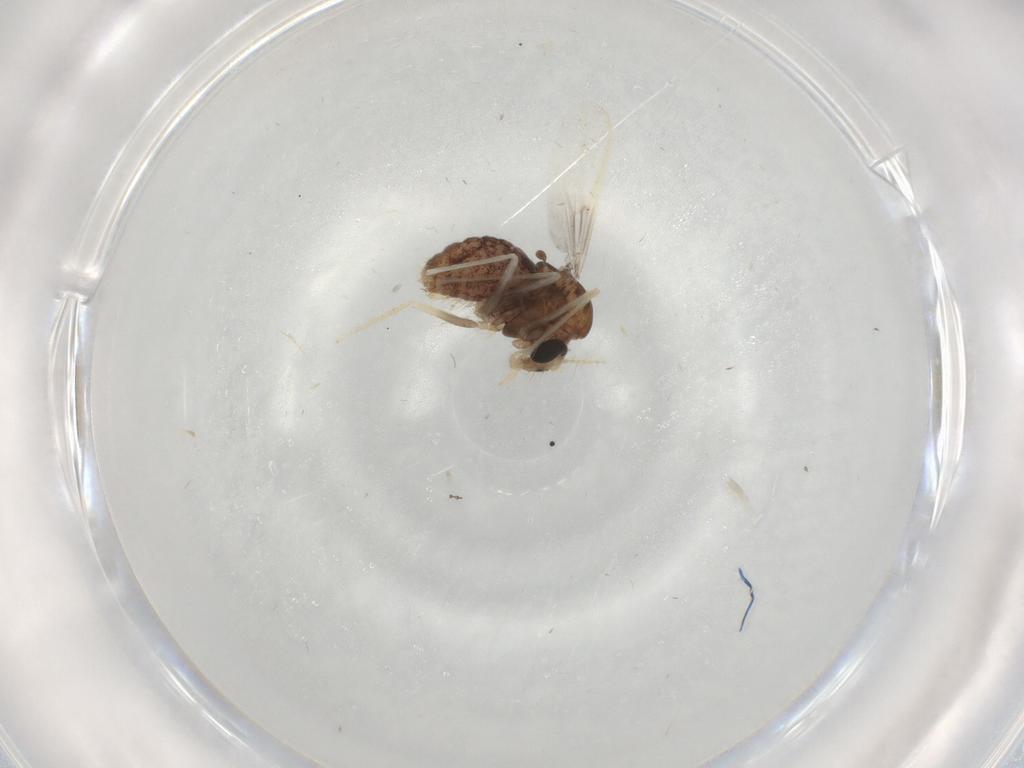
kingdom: Animalia
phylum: Arthropoda
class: Insecta
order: Diptera
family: Chironomidae
